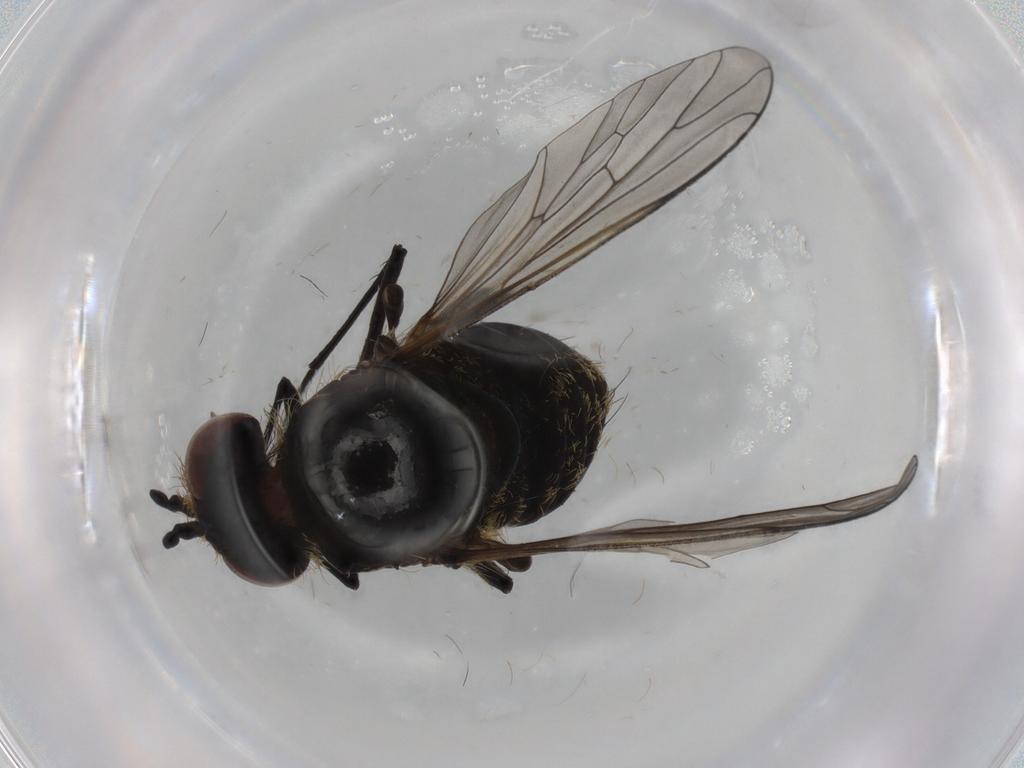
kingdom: Animalia
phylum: Arthropoda
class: Insecta
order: Diptera
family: Bombyliidae
